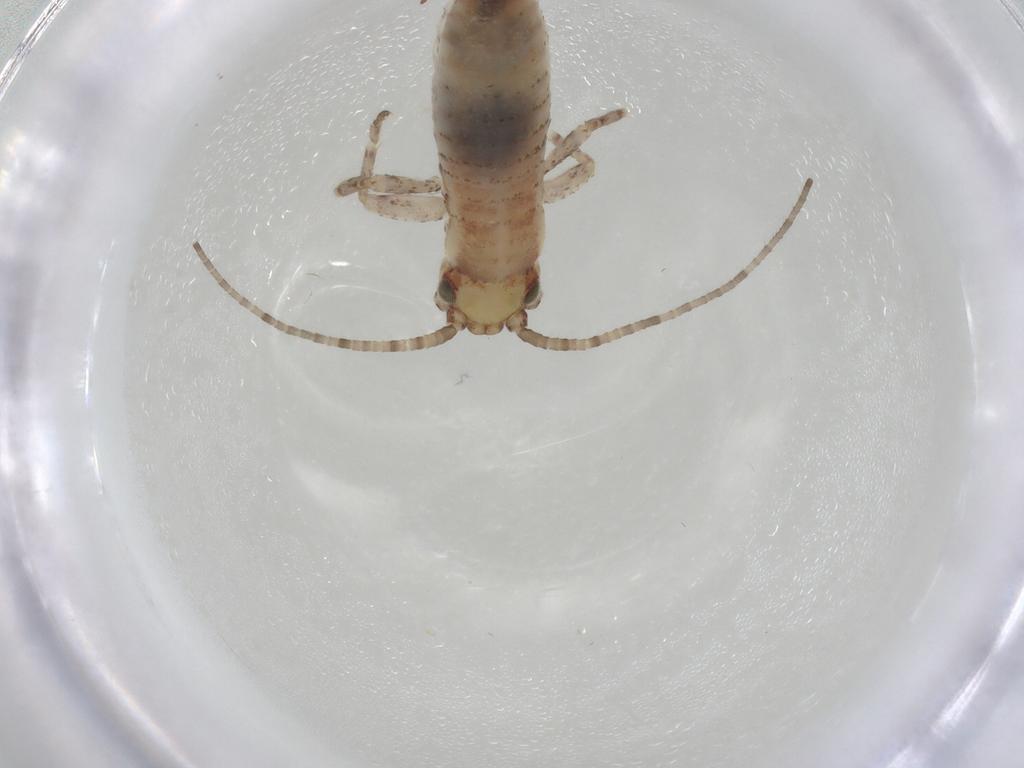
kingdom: Animalia
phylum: Arthropoda
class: Insecta
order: Orthoptera
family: Mogoplistidae
